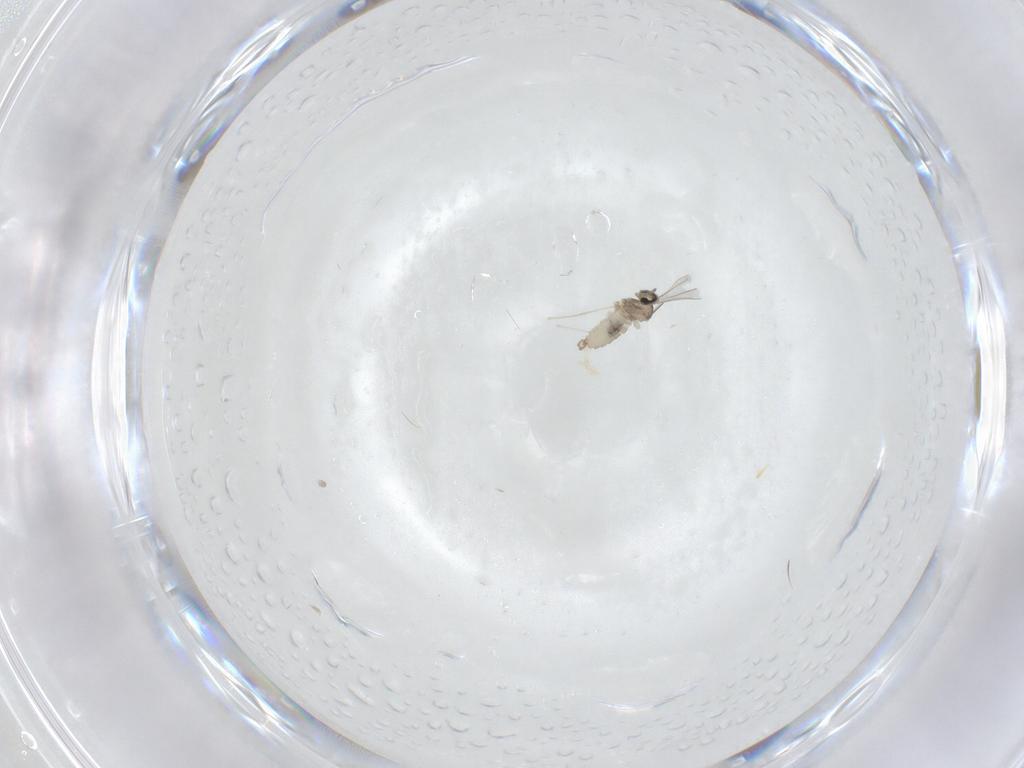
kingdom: Animalia
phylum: Arthropoda
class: Insecta
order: Diptera
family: Cecidomyiidae
